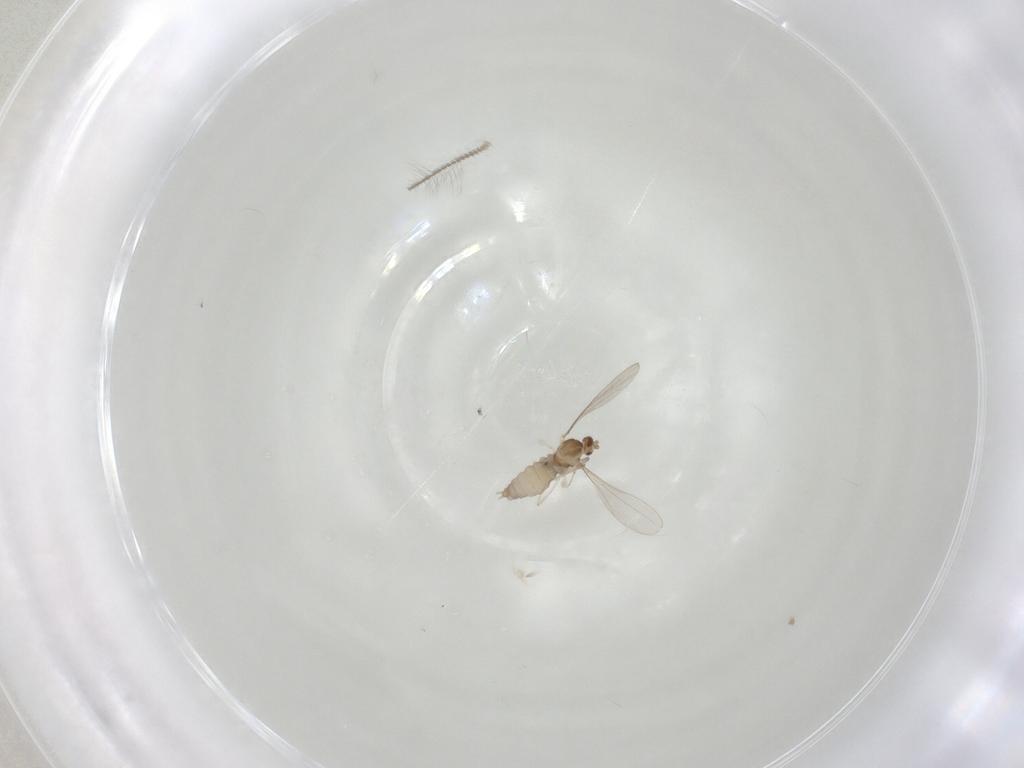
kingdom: Animalia
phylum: Arthropoda
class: Insecta
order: Diptera
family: Cecidomyiidae
